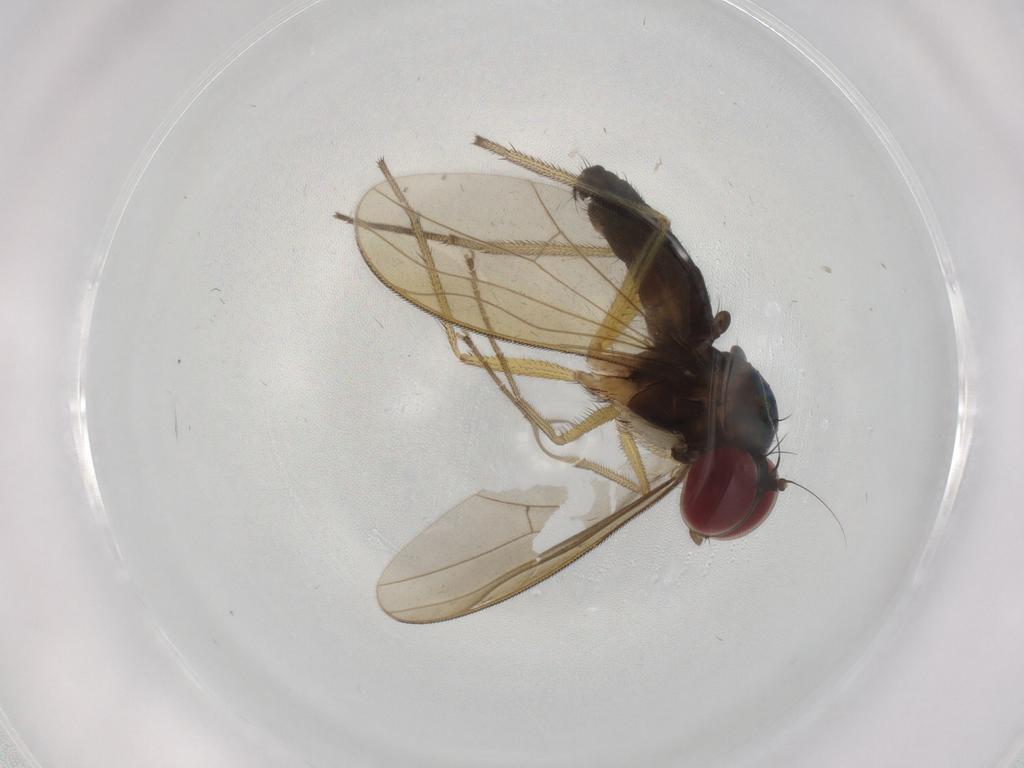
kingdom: Animalia
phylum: Arthropoda
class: Insecta
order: Diptera
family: Dolichopodidae
